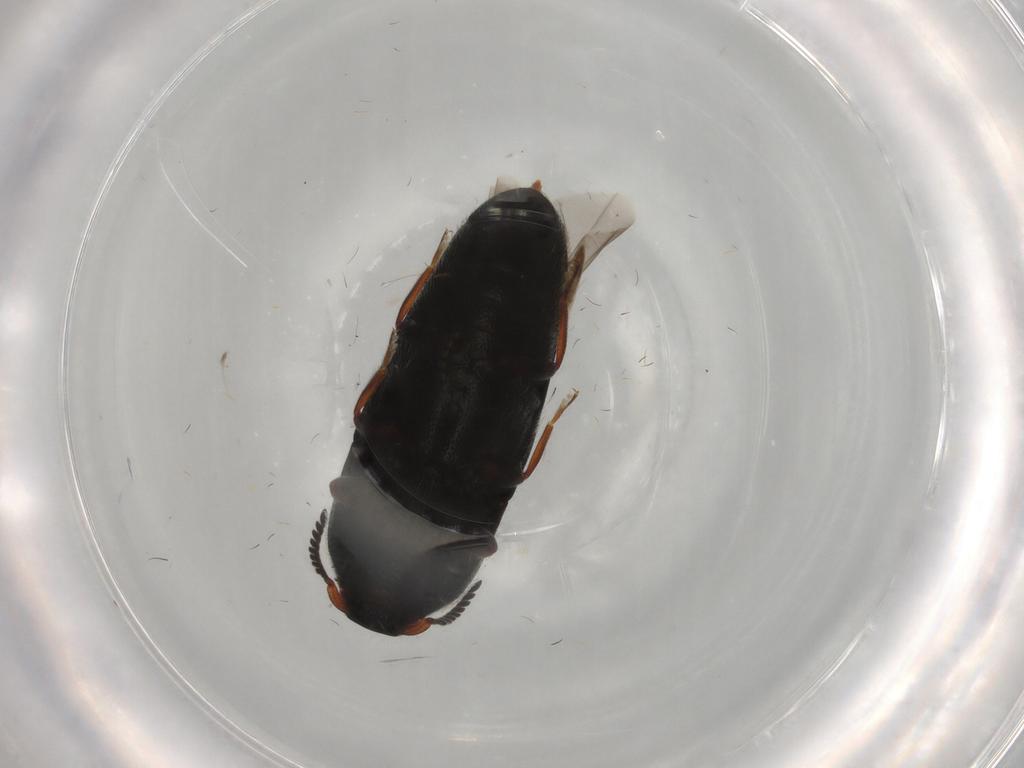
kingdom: Animalia
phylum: Arthropoda
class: Insecta
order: Coleoptera
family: Elateridae
